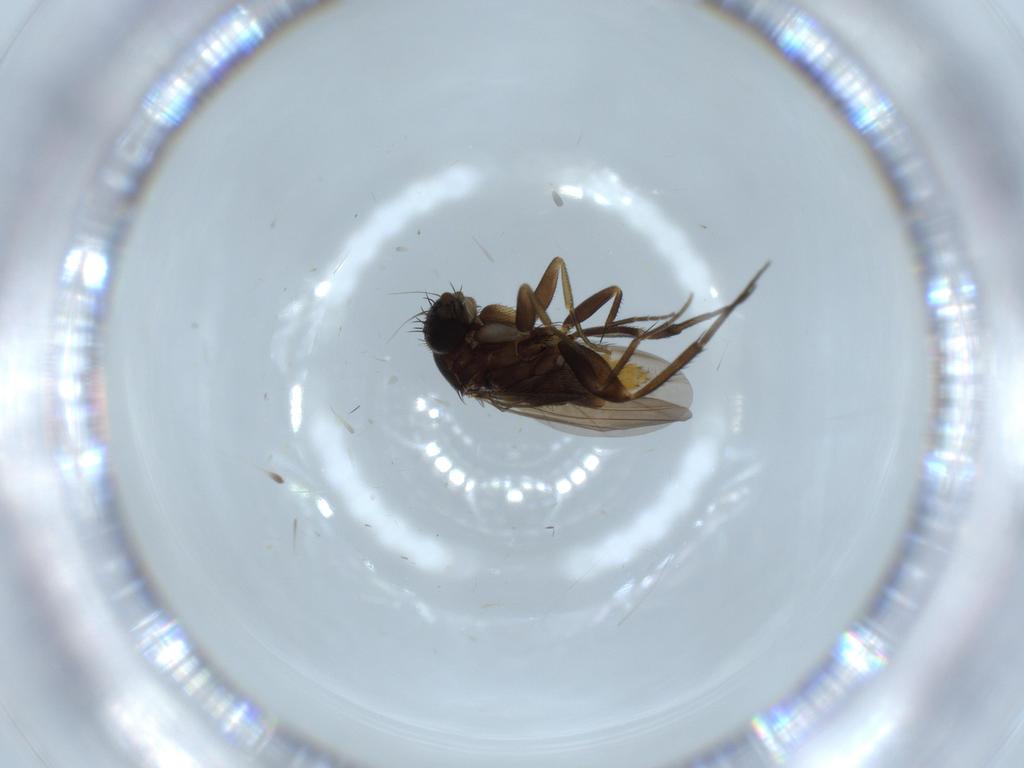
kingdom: Animalia
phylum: Arthropoda
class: Insecta
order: Diptera
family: Phoridae
